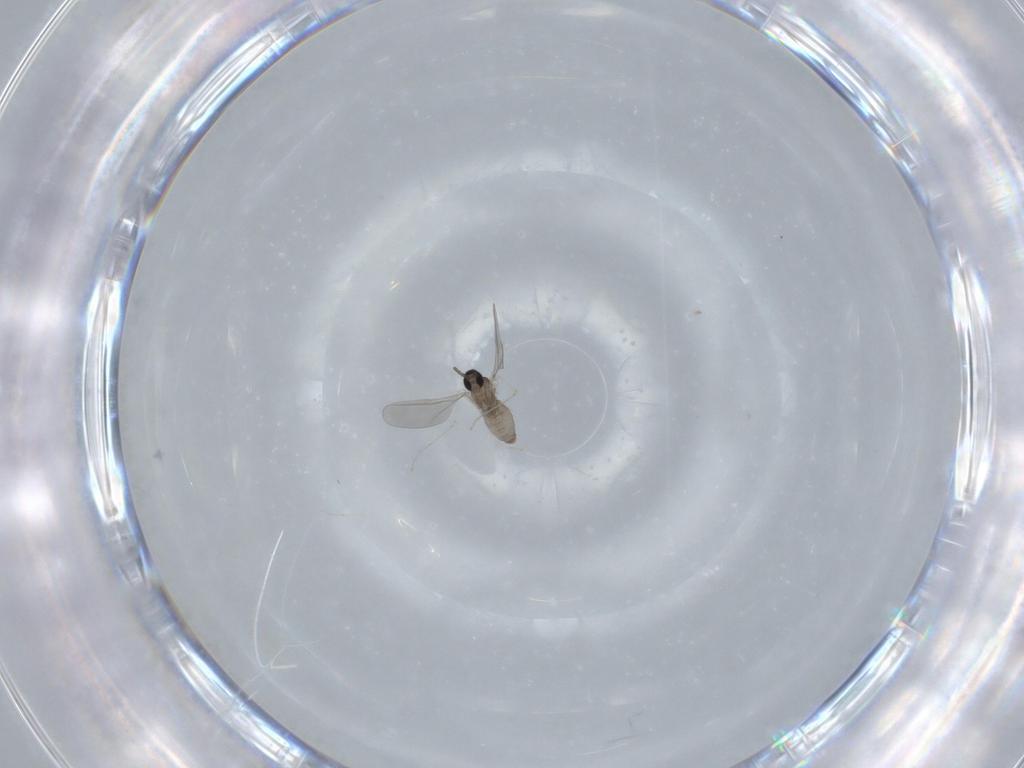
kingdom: Animalia
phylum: Arthropoda
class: Insecta
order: Diptera
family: Cecidomyiidae
